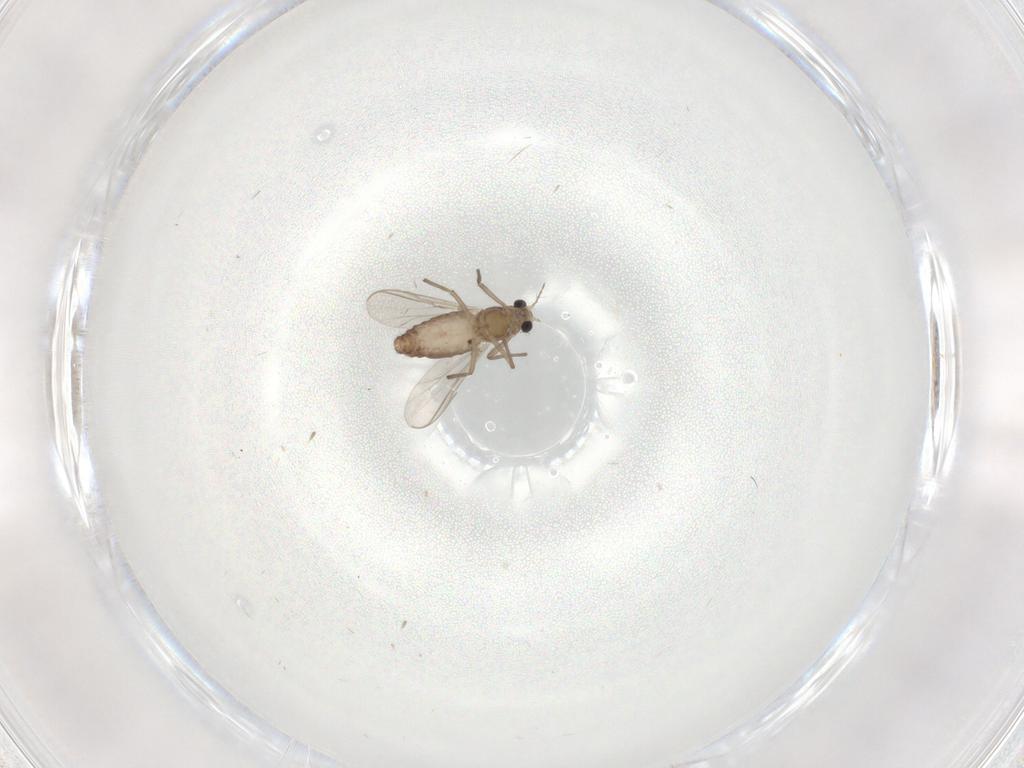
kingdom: Animalia
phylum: Arthropoda
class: Insecta
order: Diptera
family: Chironomidae
